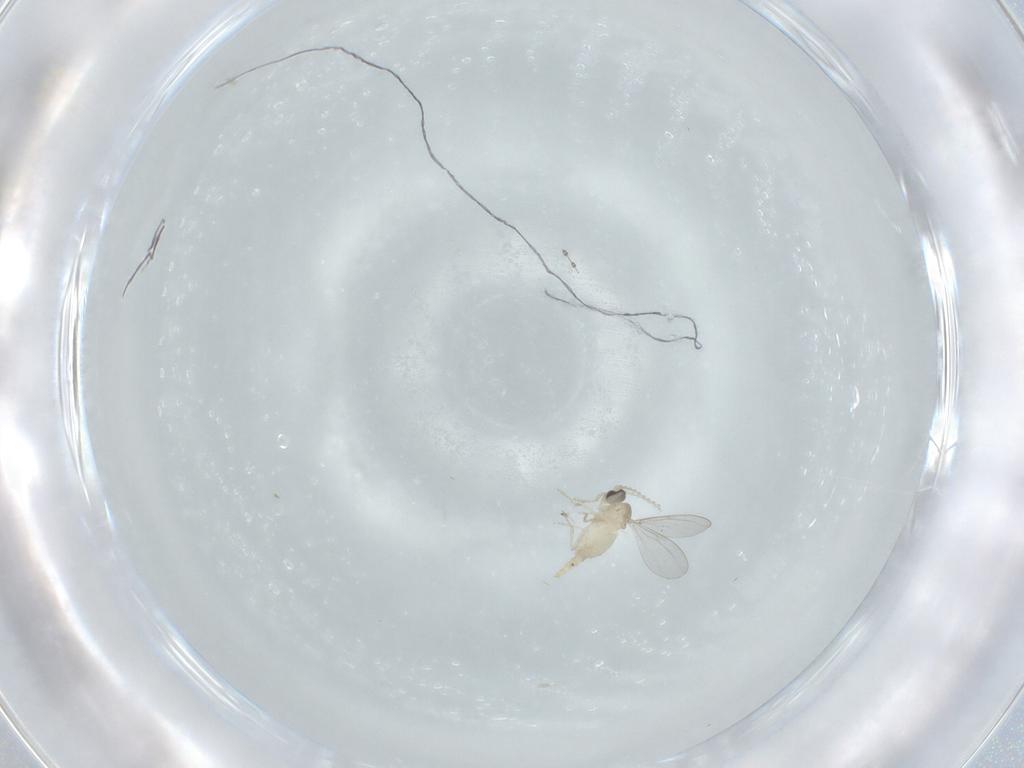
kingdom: Animalia
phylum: Arthropoda
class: Insecta
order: Diptera
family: Cecidomyiidae
